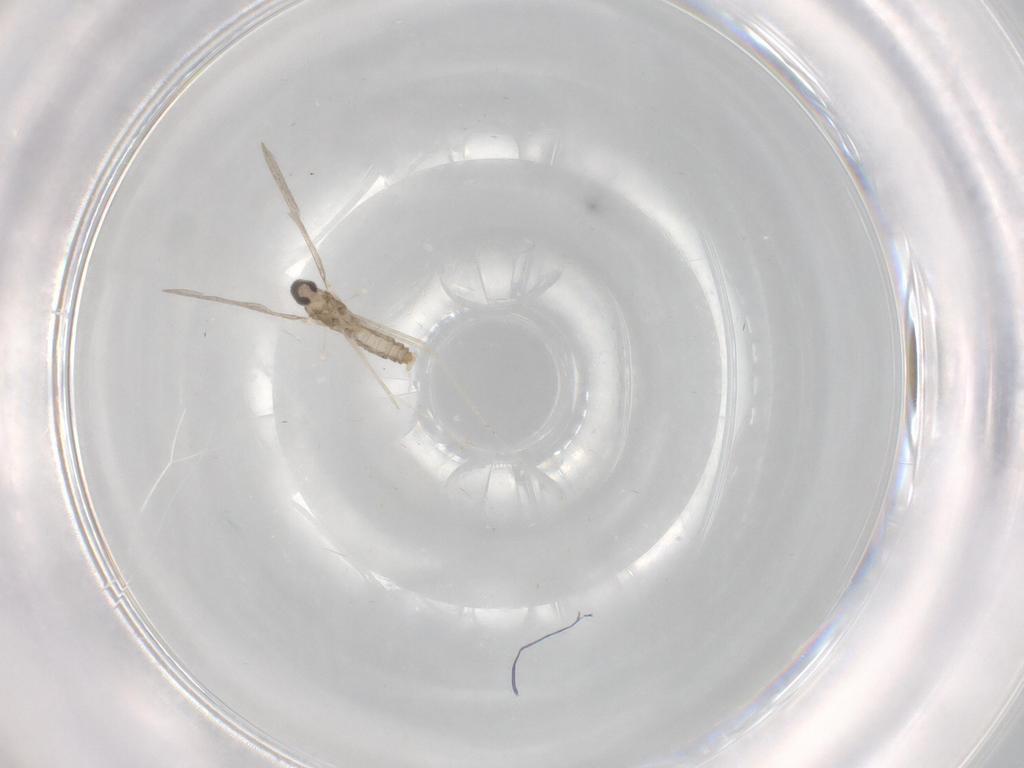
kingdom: Animalia
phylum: Arthropoda
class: Insecta
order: Diptera
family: Cecidomyiidae
